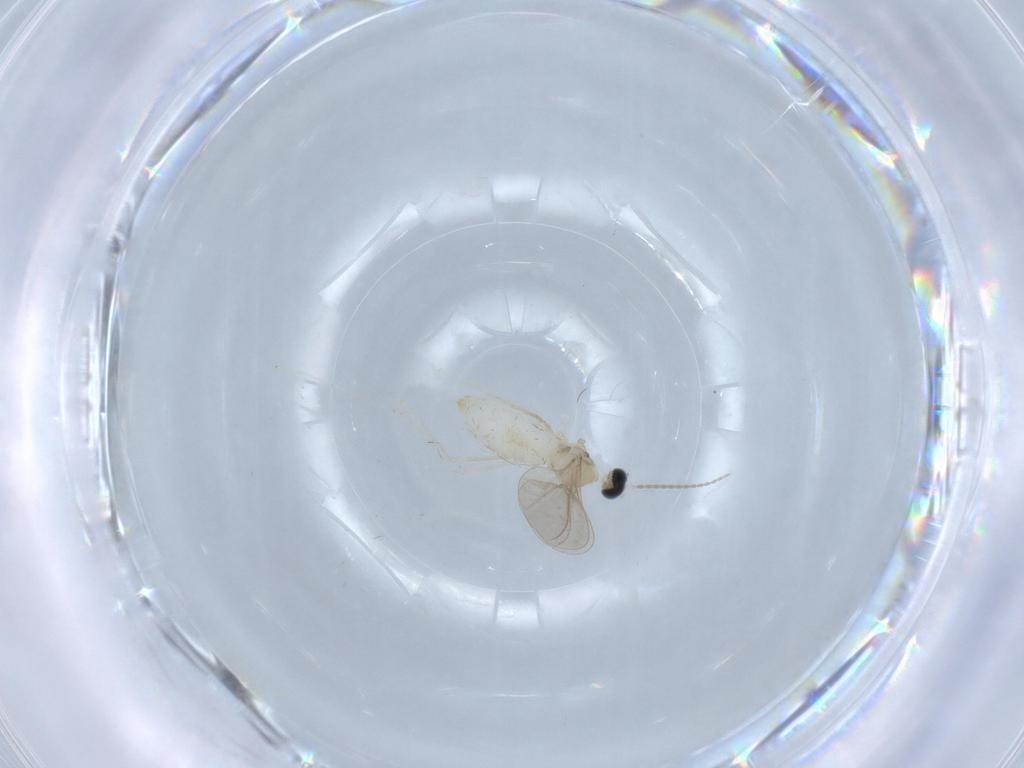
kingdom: Animalia
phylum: Arthropoda
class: Insecta
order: Diptera
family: Cecidomyiidae
